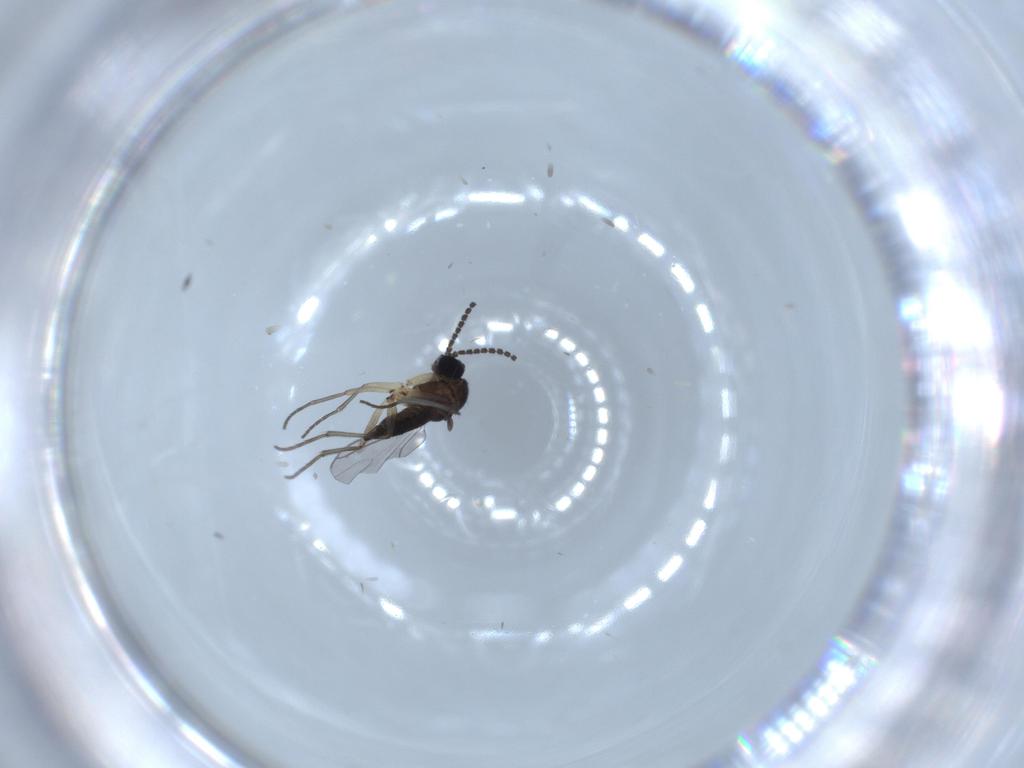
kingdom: Animalia
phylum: Arthropoda
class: Insecta
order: Diptera
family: Sciaridae
